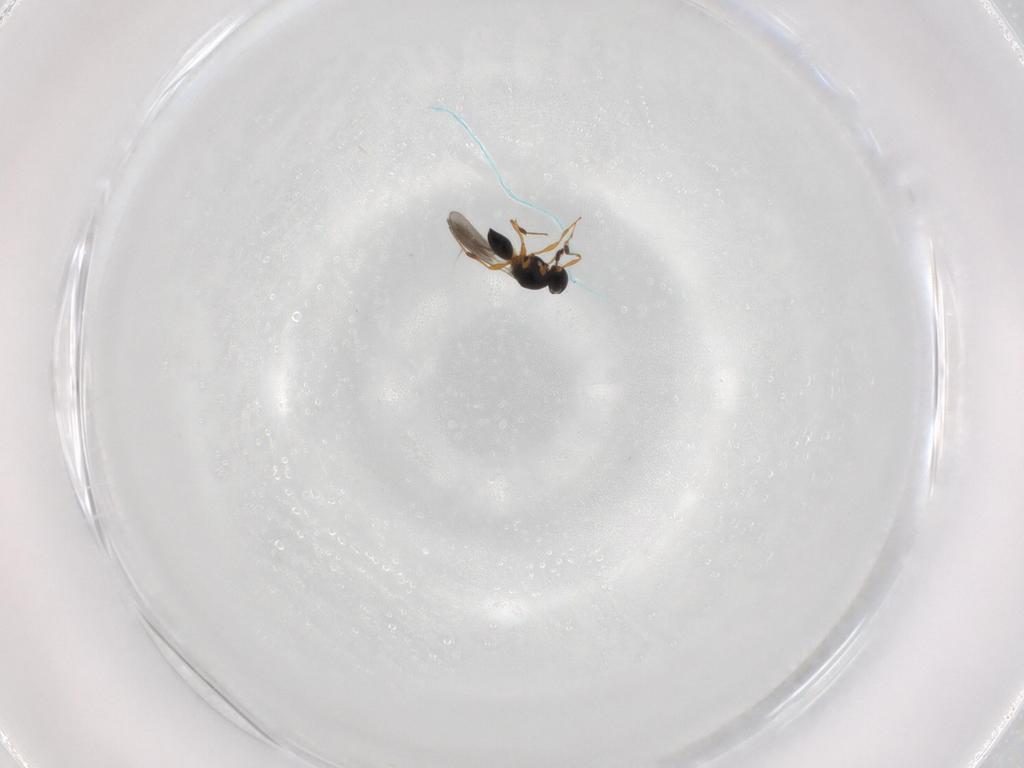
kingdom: Animalia
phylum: Arthropoda
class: Insecta
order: Hymenoptera
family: Platygastridae
